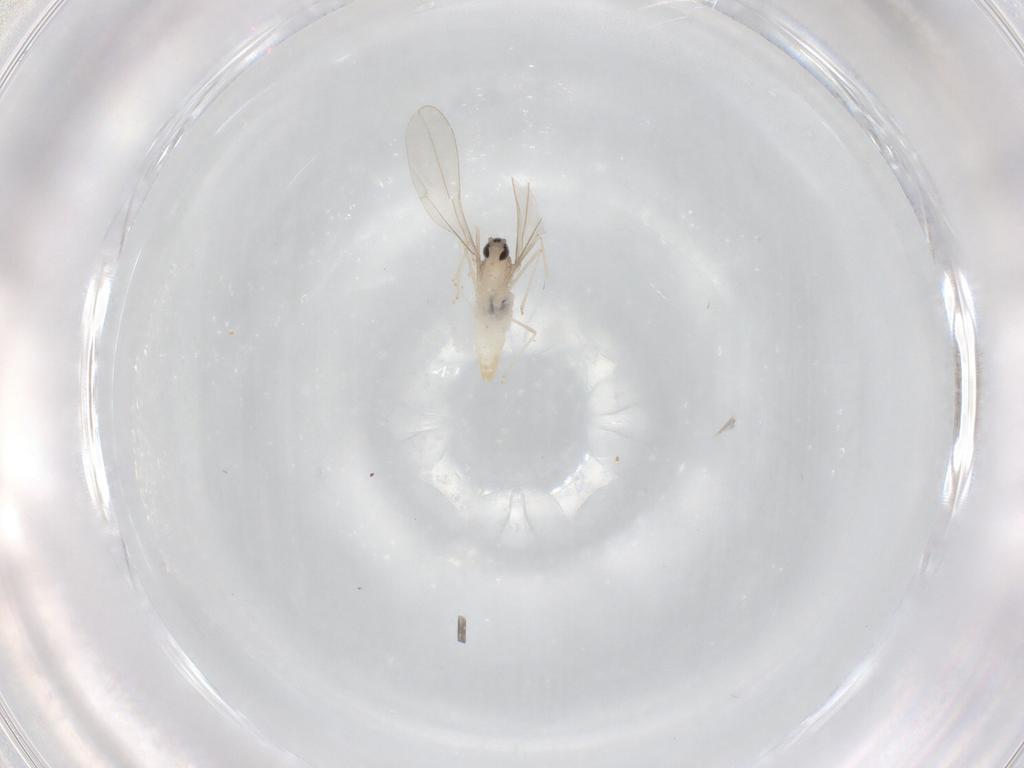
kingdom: Animalia
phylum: Arthropoda
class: Insecta
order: Diptera
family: Cecidomyiidae
